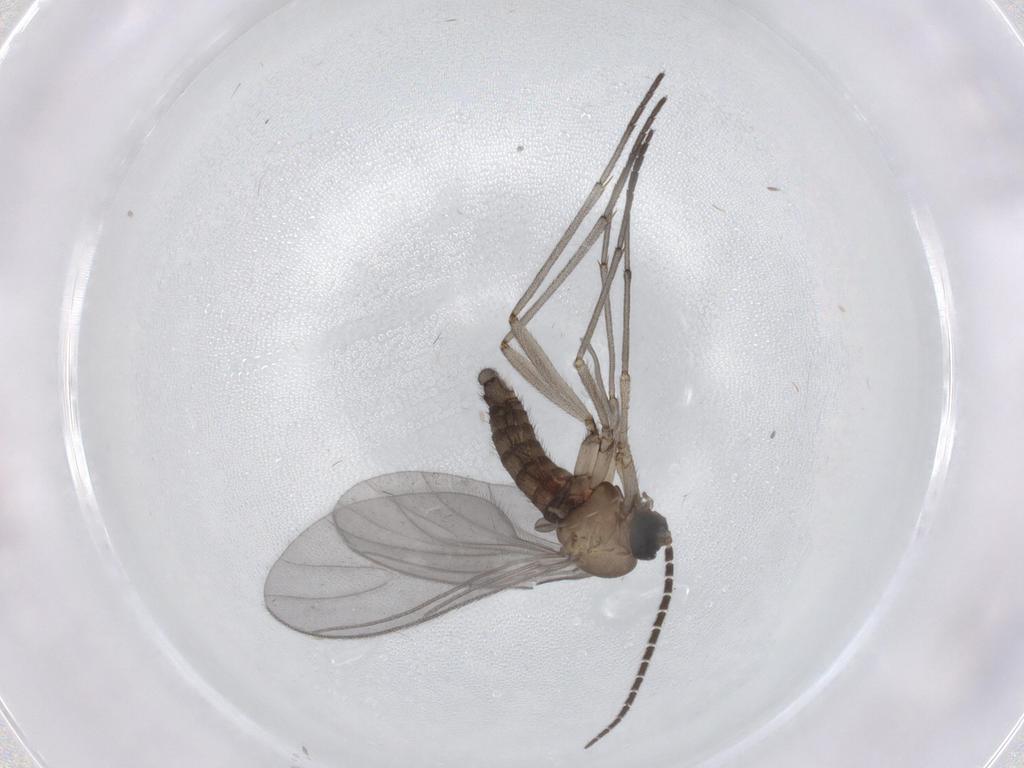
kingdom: Animalia
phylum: Arthropoda
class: Insecta
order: Diptera
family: Sciaridae
